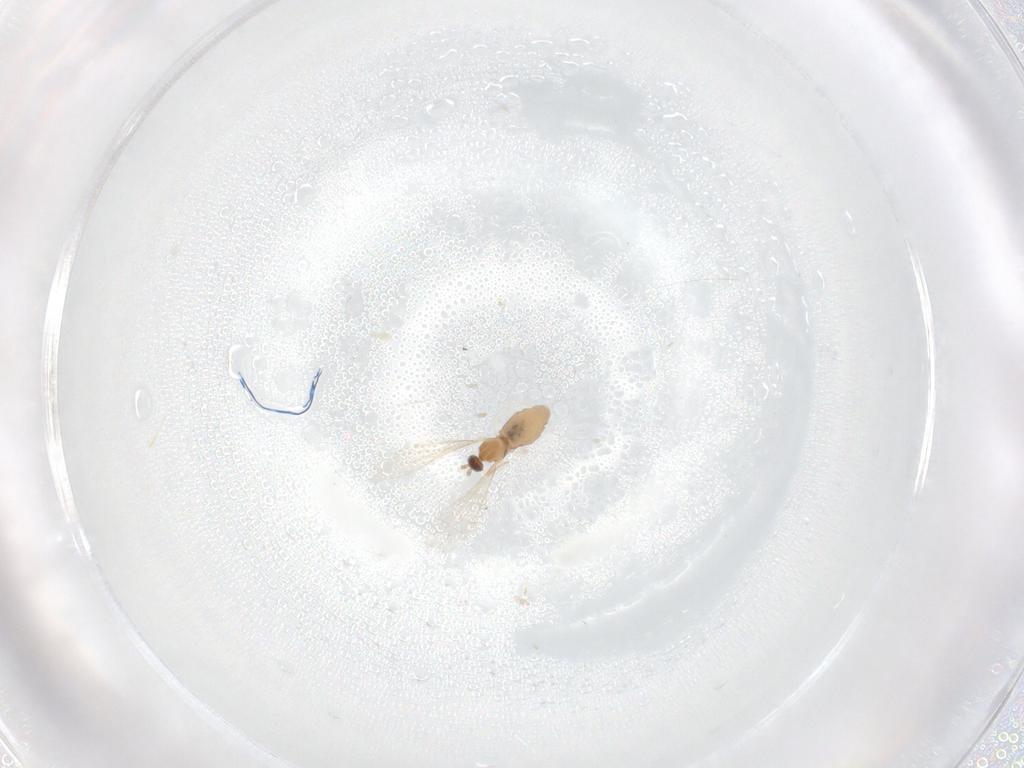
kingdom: Animalia
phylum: Arthropoda
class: Insecta
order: Diptera
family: Cecidomyiidae
